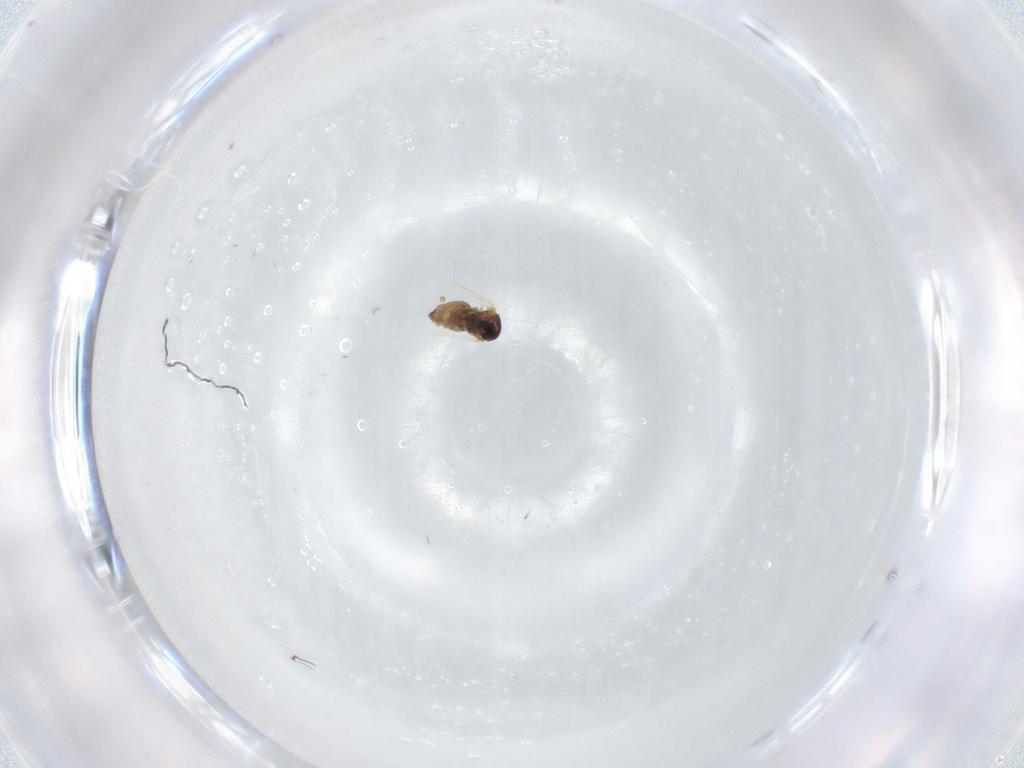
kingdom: Animalia
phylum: Arthropoda
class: Insecta
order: Diptera
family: Cecidomyiidae
